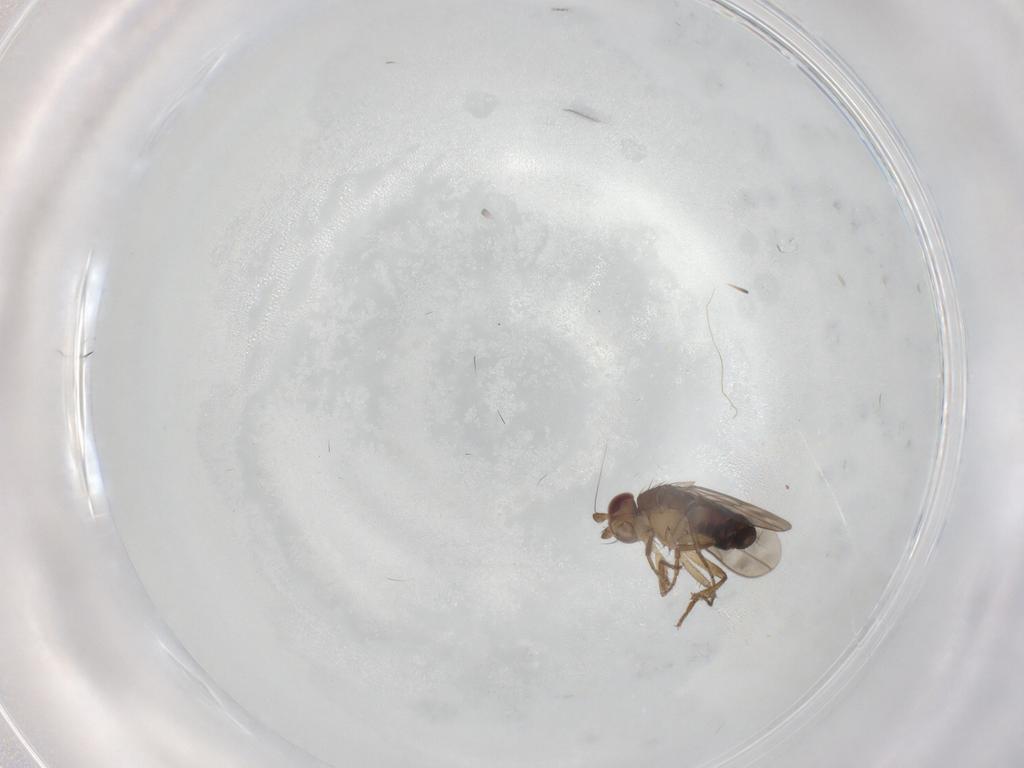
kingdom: Animalia
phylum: Arthropoda
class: Insecta
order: Diptera
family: Sphaeroceridae
